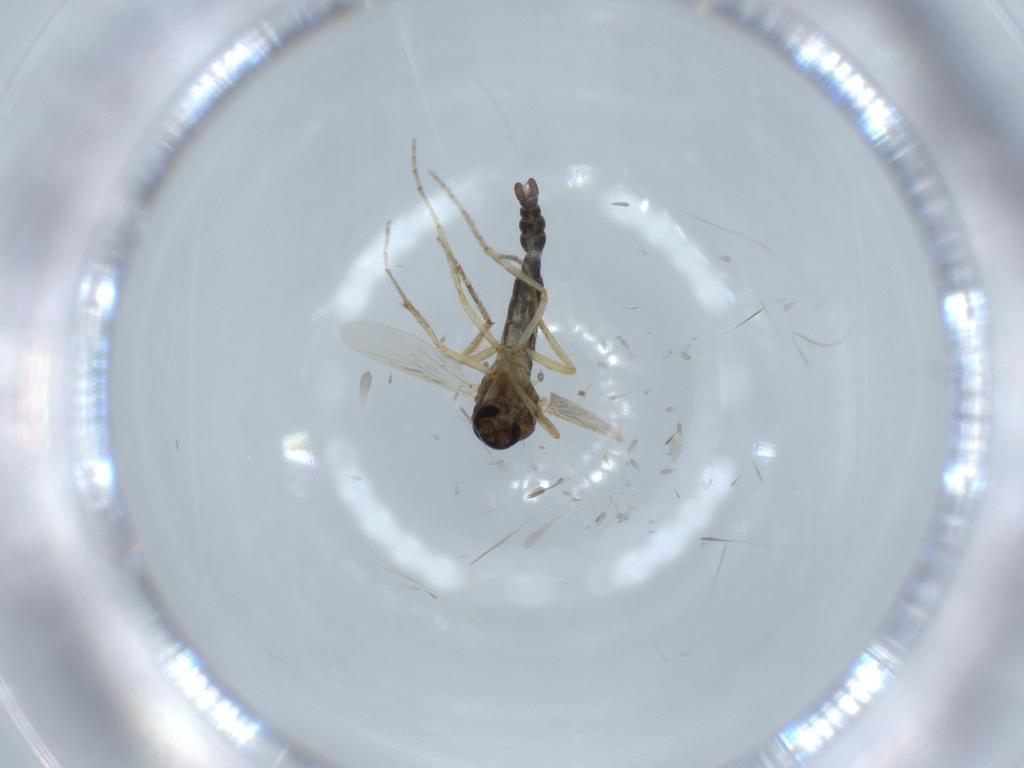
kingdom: Animalia
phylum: Arthropoda
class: Insecta
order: Diptera
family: Ceratopogonidae
